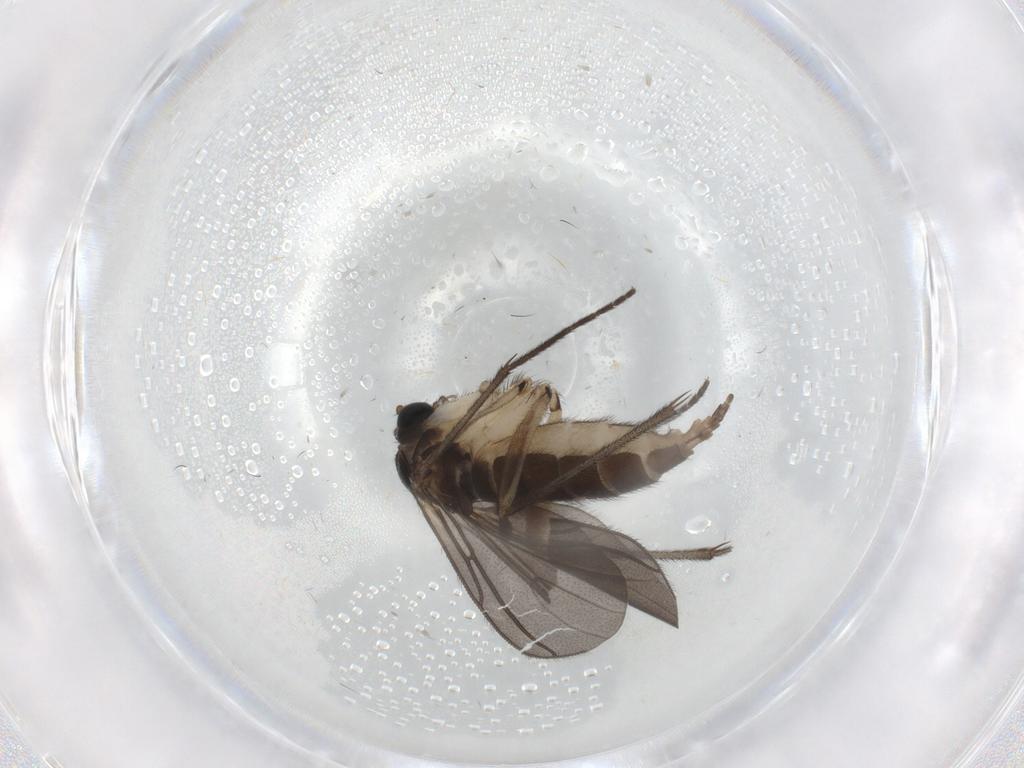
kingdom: Animalia
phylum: Arthropoda
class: Insecta
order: Diptera
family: Sciaridae
